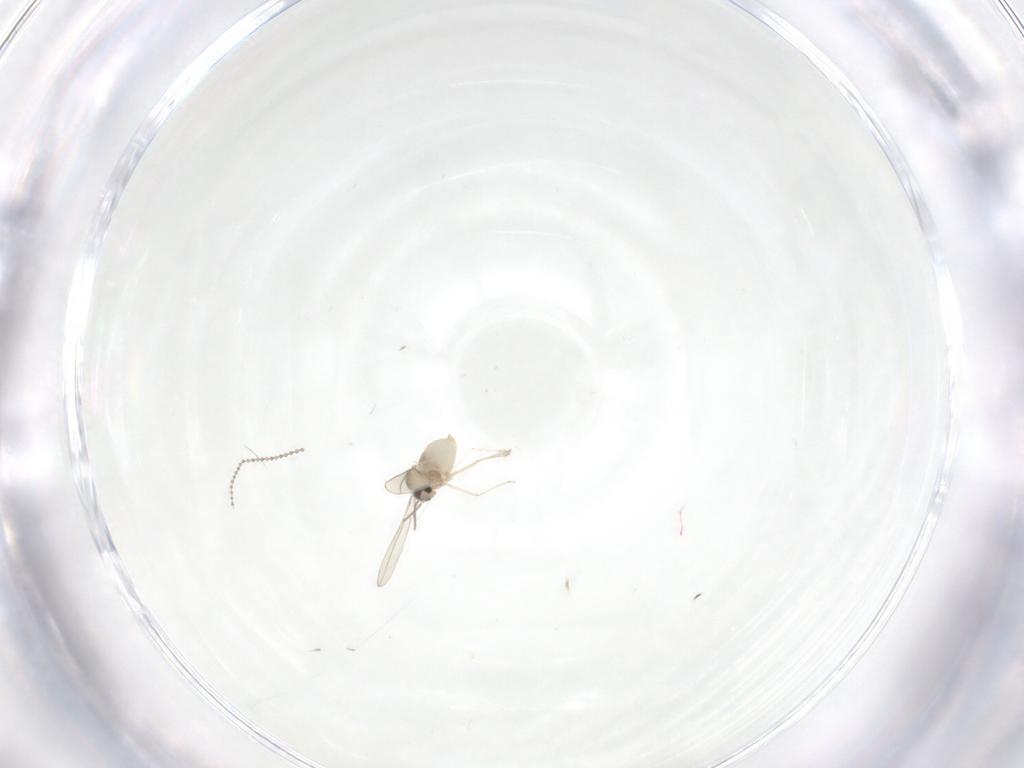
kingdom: Animalia
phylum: Arthropoda
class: Insecta
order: Diptera
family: Cecidomyiidae
